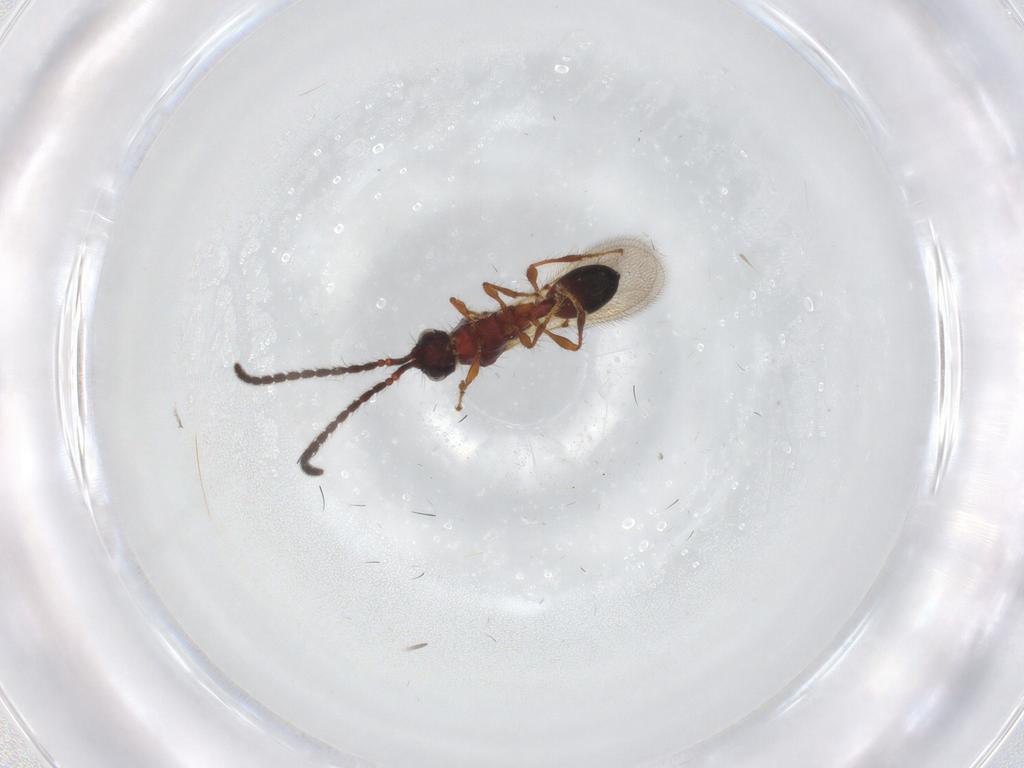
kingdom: Animalia
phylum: Arthropoda
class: Insecta
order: Hymenoptera
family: Diapriidae
